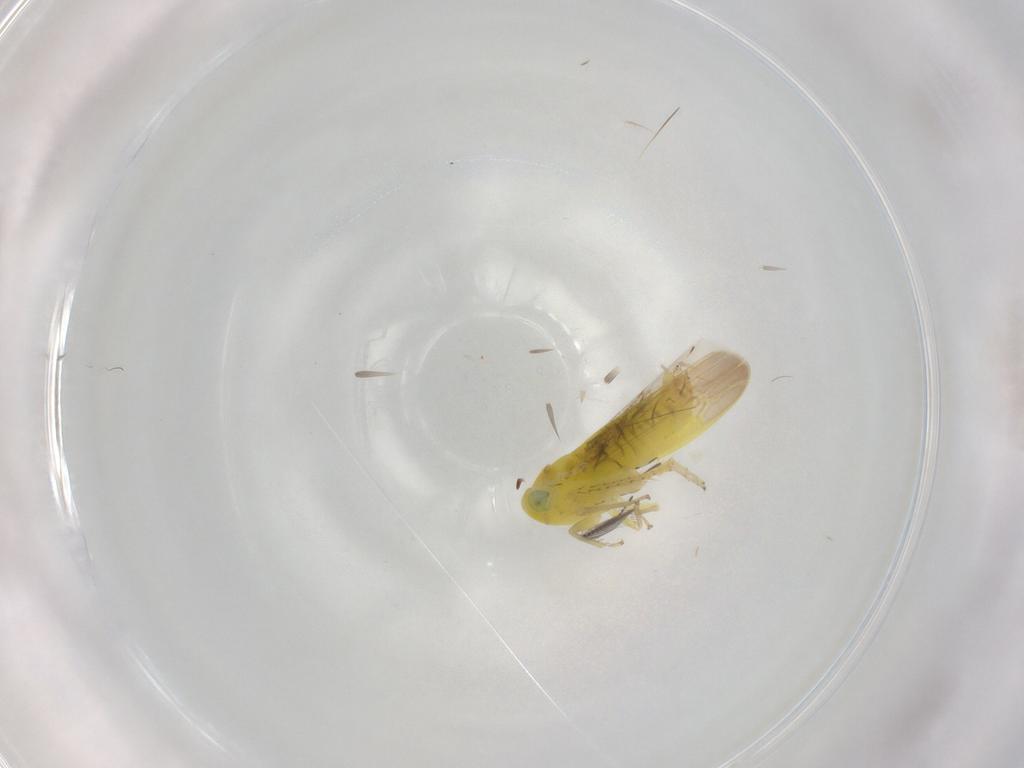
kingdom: Animalia
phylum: Arthropoda
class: Insecta
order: Hemiptera
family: Cicadellidae
